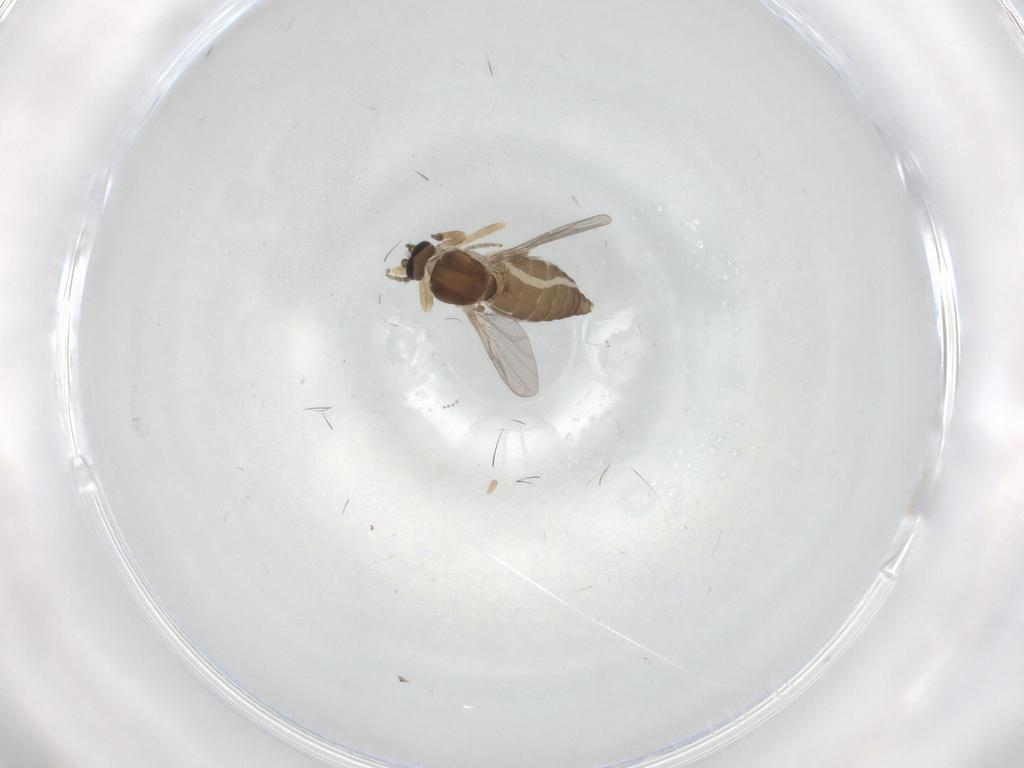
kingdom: Animalia
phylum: Arthropoda
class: Insecta
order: Diptera
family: Ceratopogonidae
